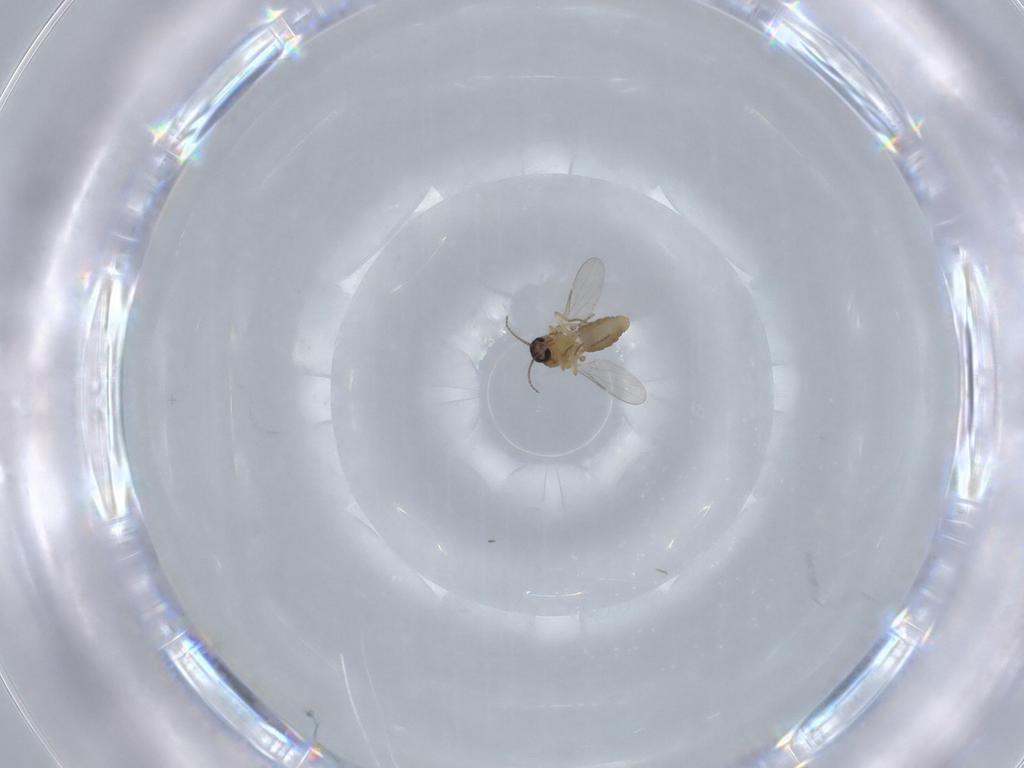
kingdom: Animalia
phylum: Arthropoda
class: Insecta
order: Diptera
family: Ceratopogonidae
